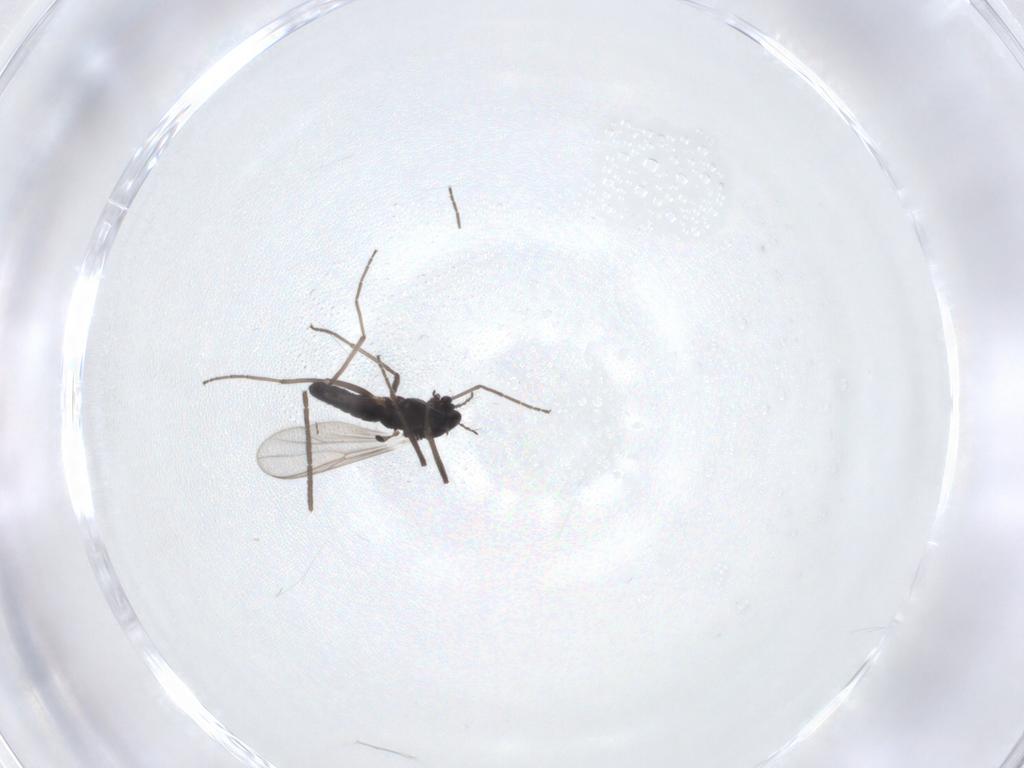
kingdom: Animalia
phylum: Arthropoda
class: Insecta
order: Diptera
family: Chironomidae
